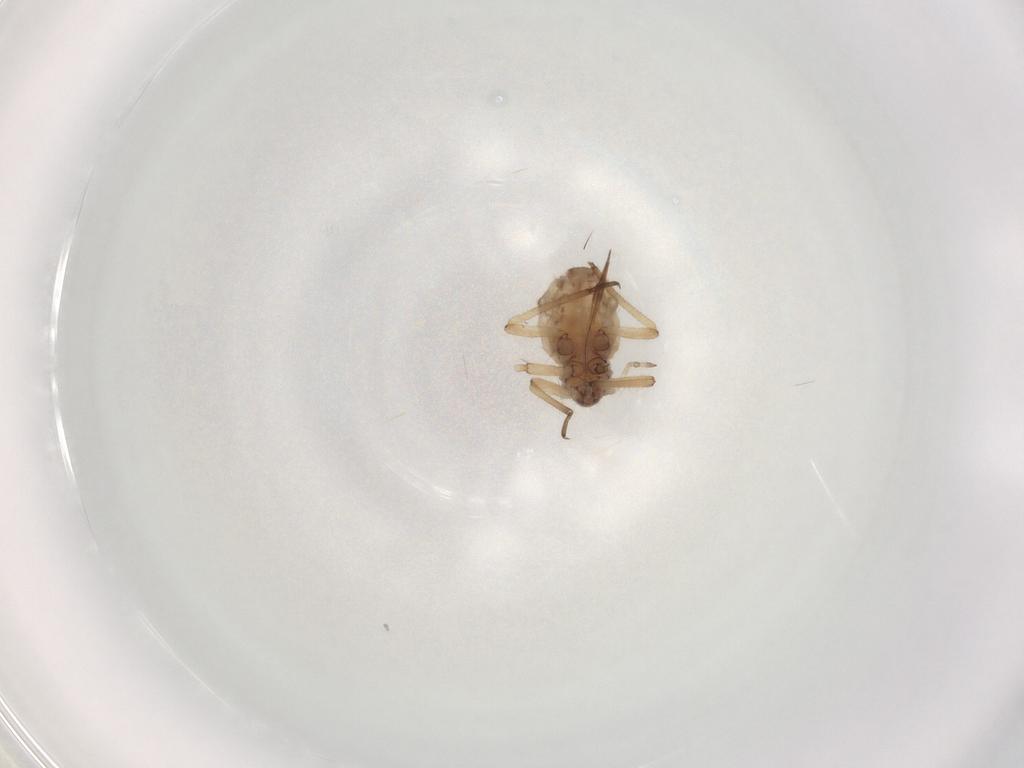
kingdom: Animalia
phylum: Arthropoda
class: Insecta
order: Hemiptera
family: Aphididae
